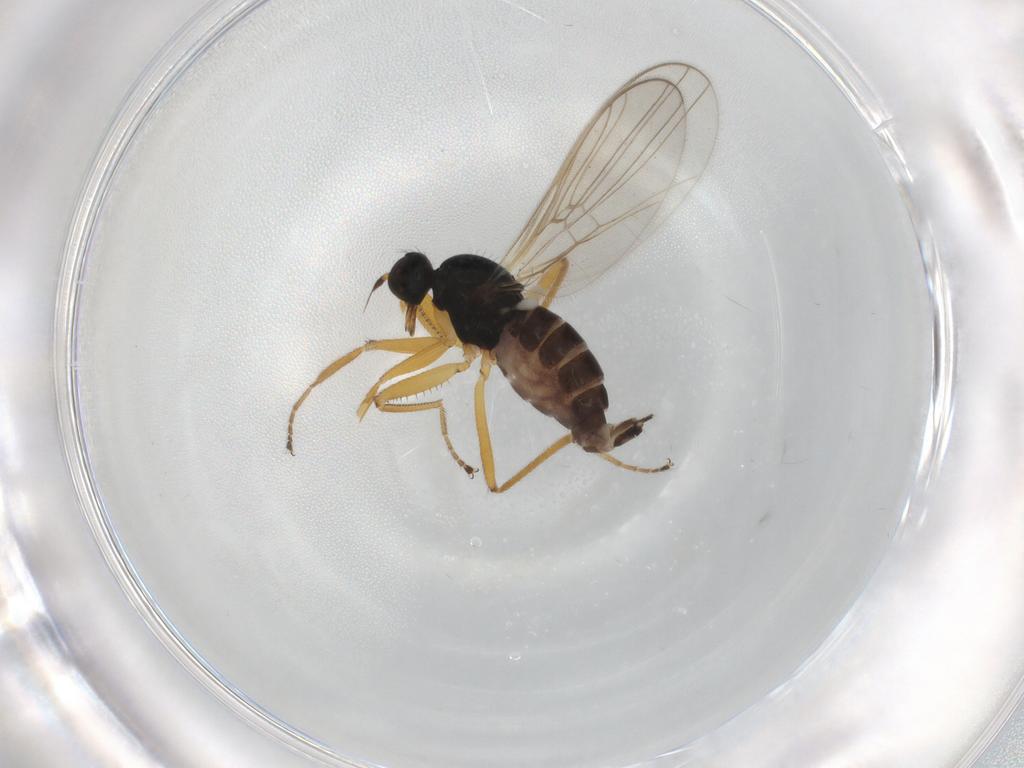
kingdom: Animalia
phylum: Arthropoda
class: Insecta
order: Diptera
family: Hybotidae
